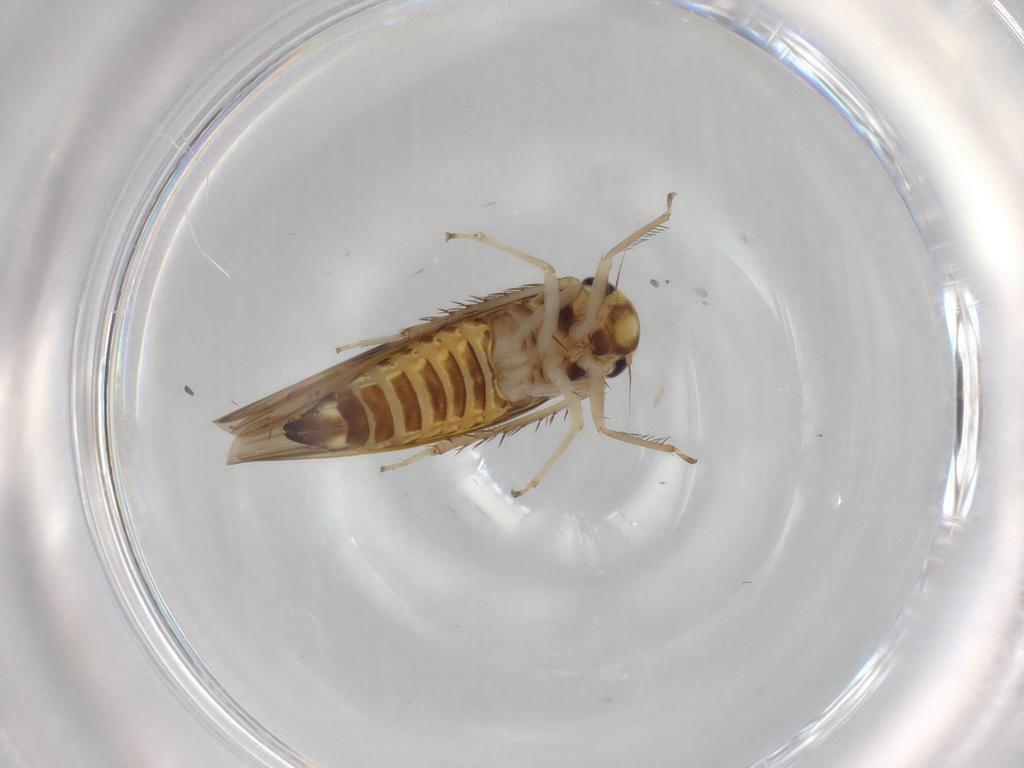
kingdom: Animalia
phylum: Arthropoda
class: Insecta
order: Hemiptera
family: Cicadellidae
